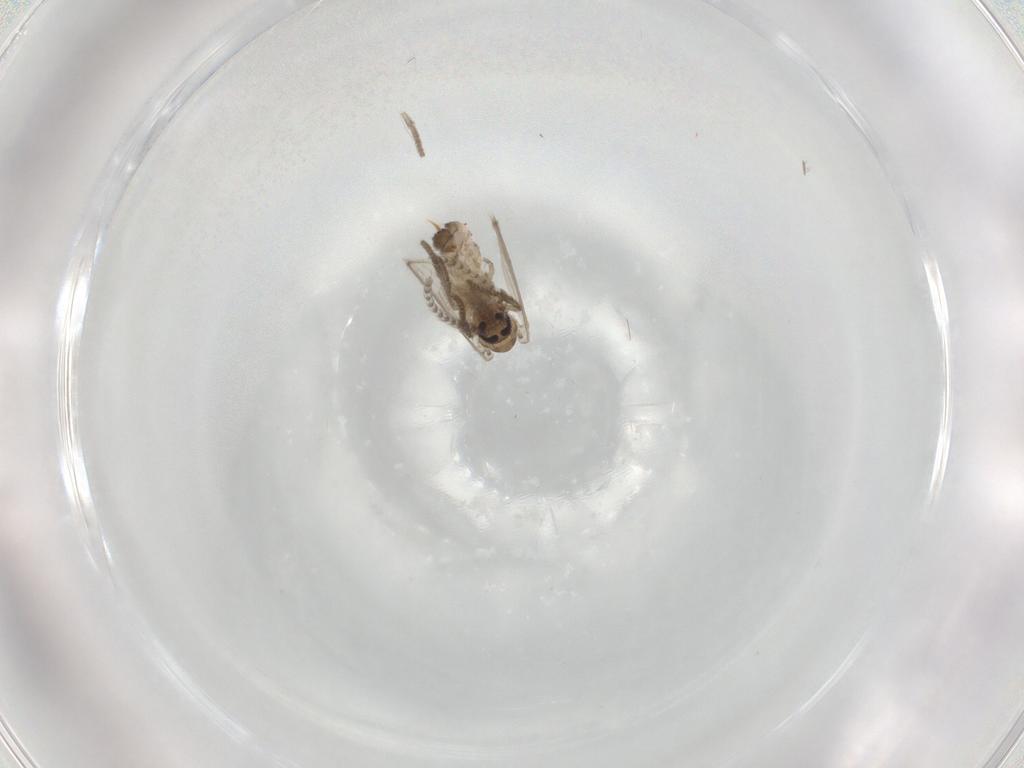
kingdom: Animalia
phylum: Arthropoda
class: Insecta
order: Diptera
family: Psychodidae
